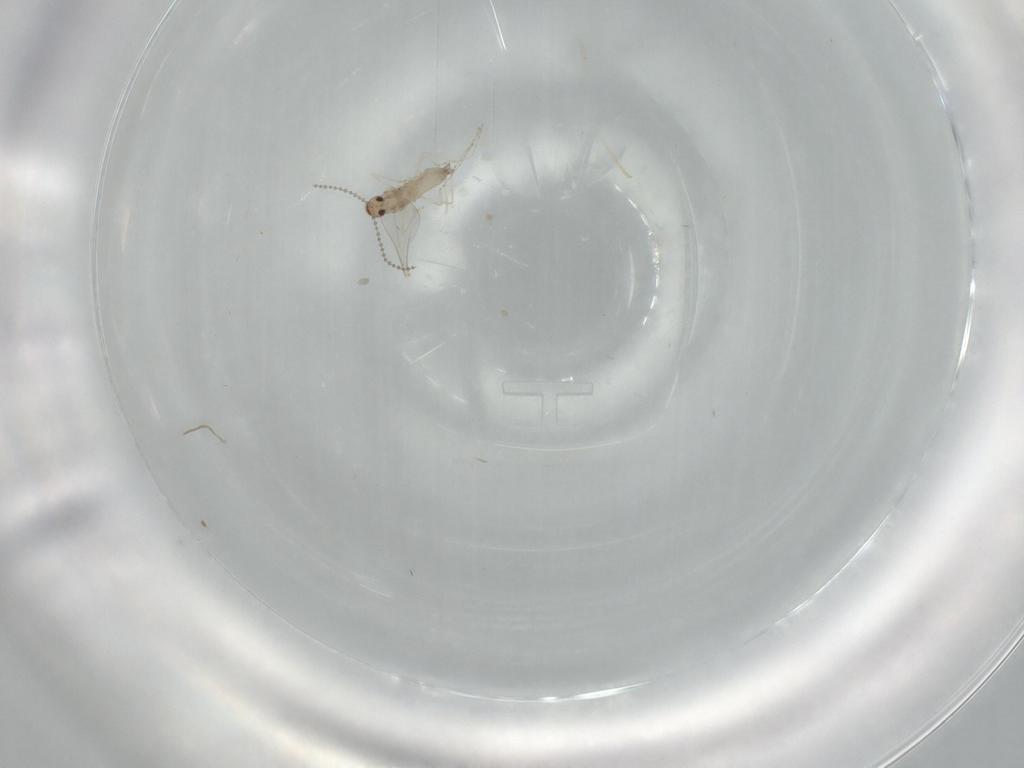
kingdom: Animalia
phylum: Arthropoda
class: Insecta
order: Diptera
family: Cecidomyiidae
